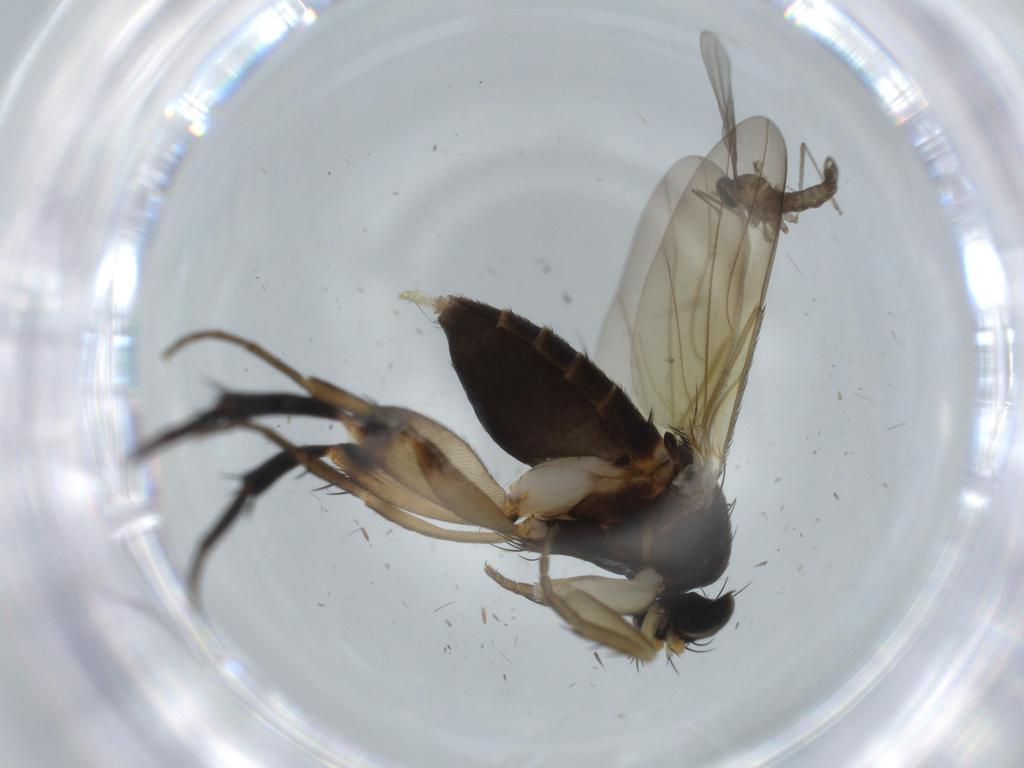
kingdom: Animalia
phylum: Arthropoda
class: Insecta
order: Diptera
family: Phoridae
